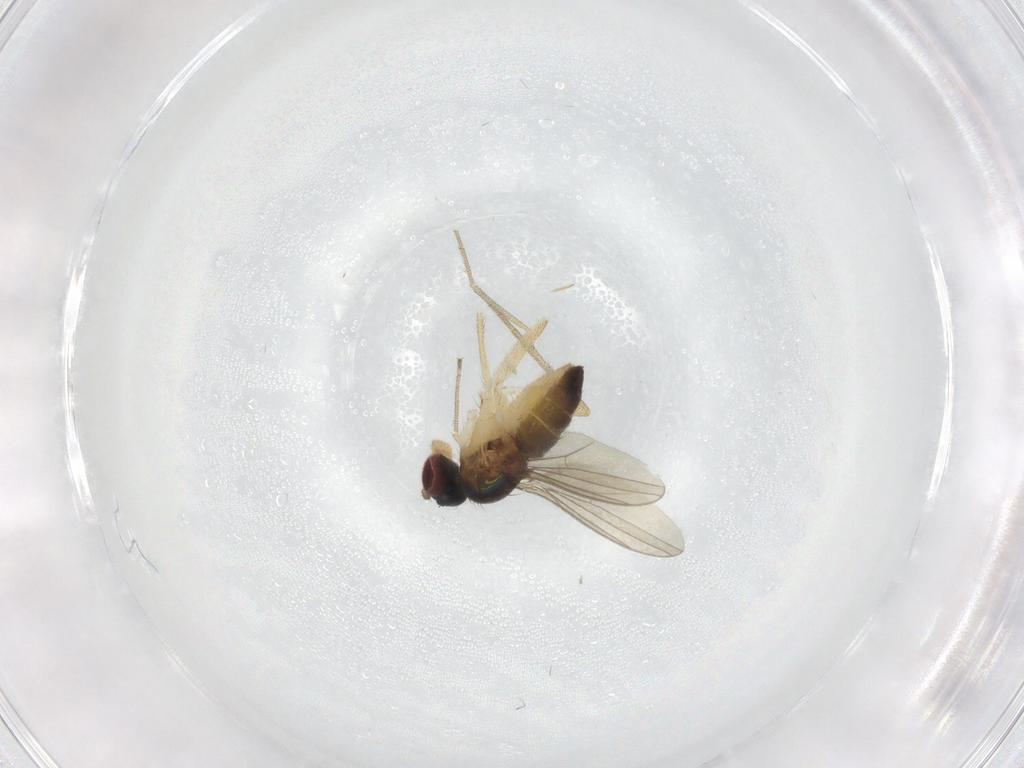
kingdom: Animalia
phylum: Arthropoda
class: Insecta
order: Diptera
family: Dolichopodidae
